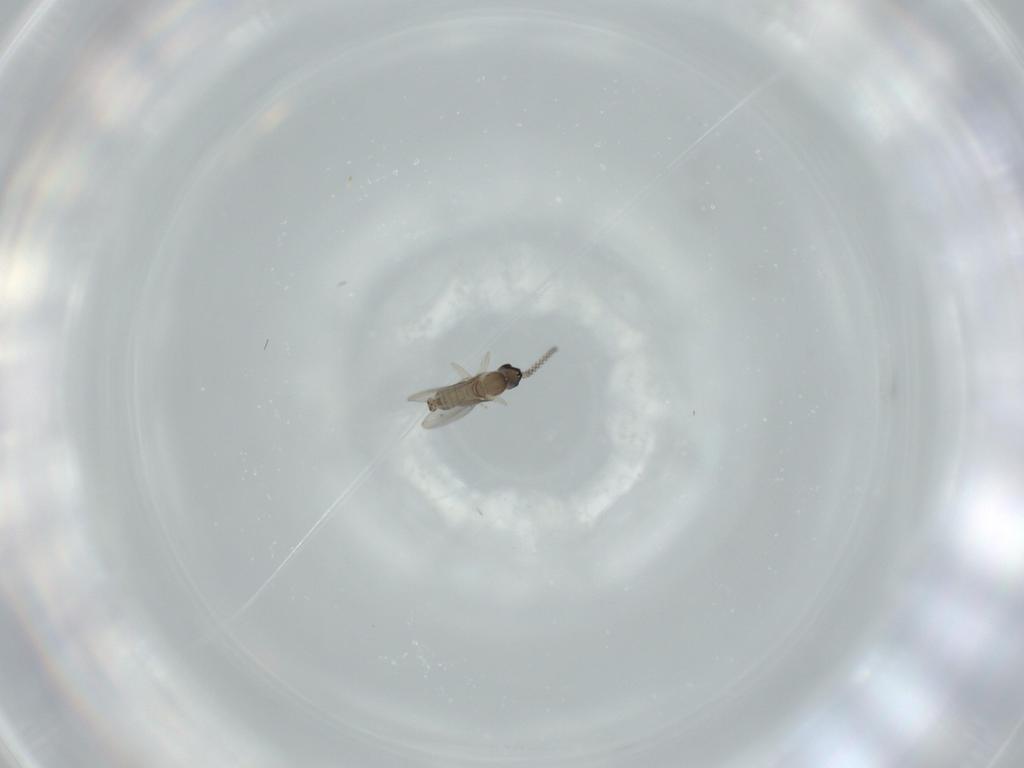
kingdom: Animalia
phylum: Arthropoda
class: Insecta
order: Diptera
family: Cecidomyiidae
